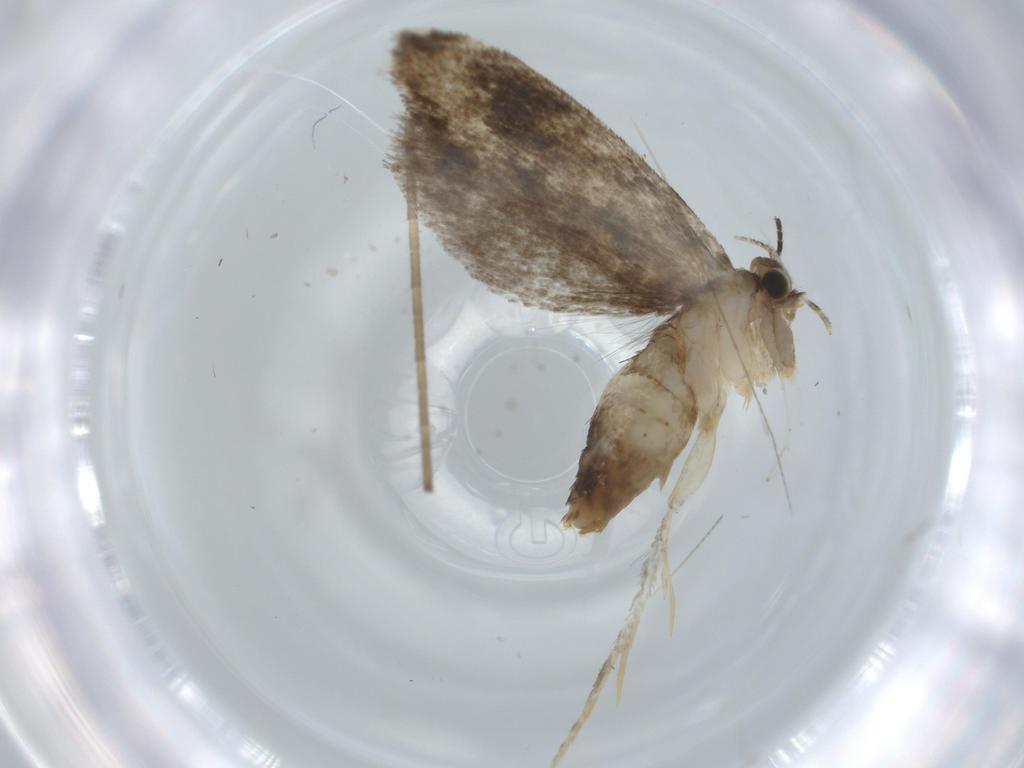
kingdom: Animalia
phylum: Arthropoda
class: Insecta
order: Lepidoptera
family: Tineidae
